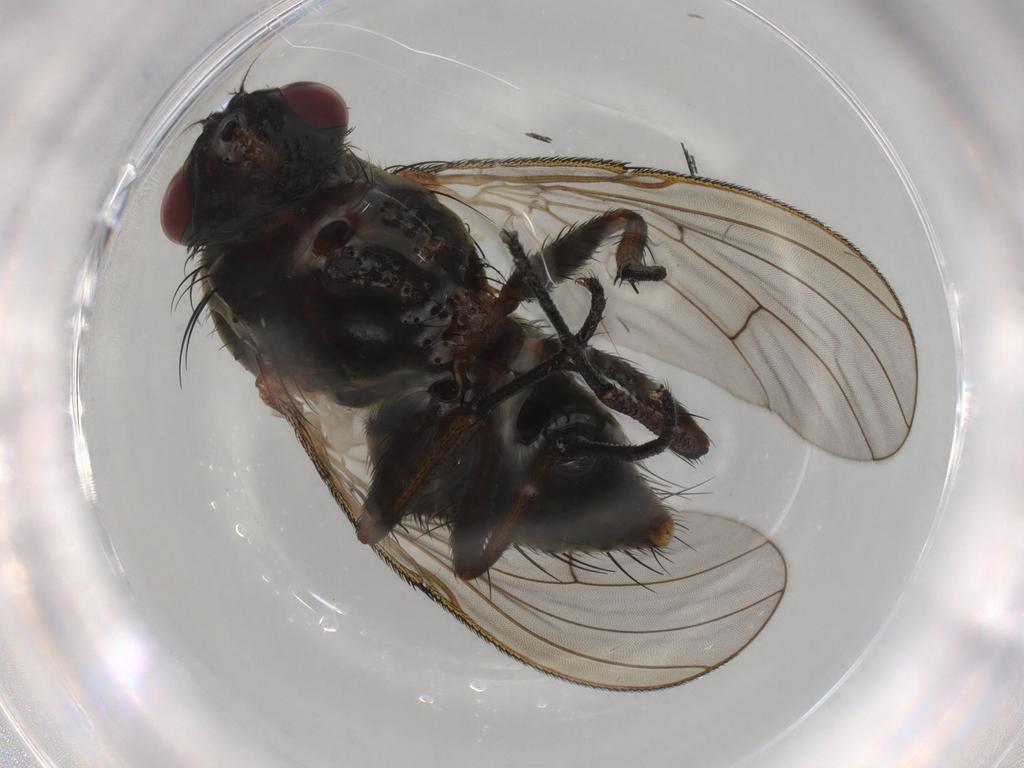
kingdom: Animalia
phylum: Arthropoda
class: Insecta
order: Diptera
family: Muscidae
